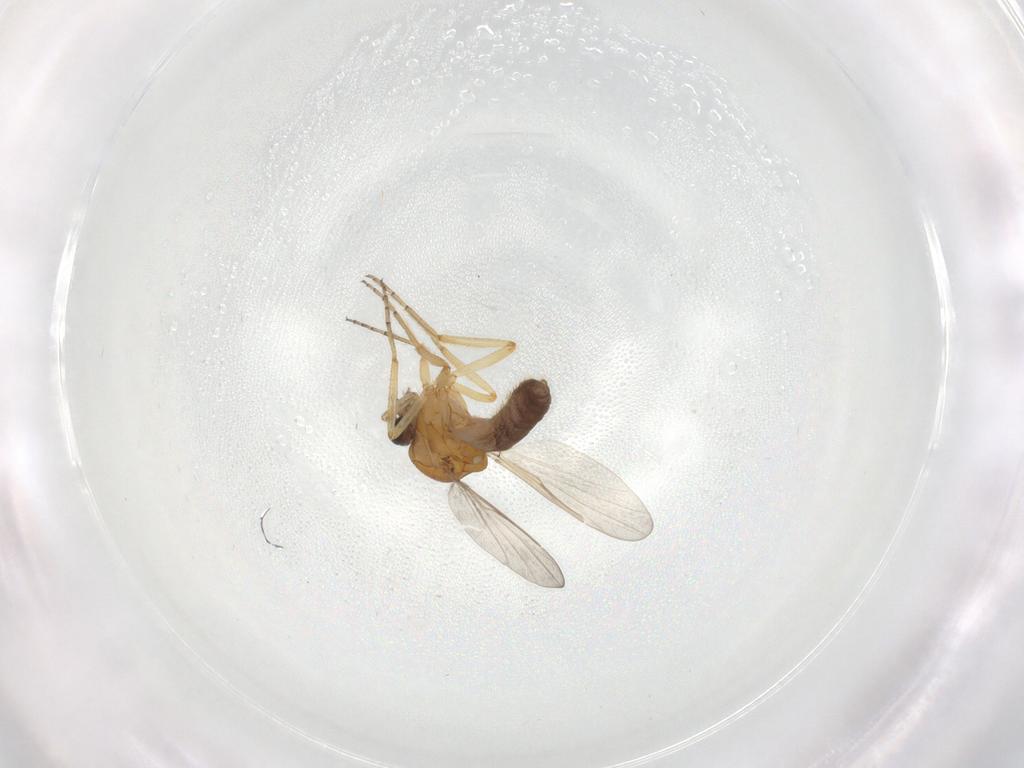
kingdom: Animalia
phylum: Arthropoda
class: Insecta
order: Diptera
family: Ceratopogonidae
